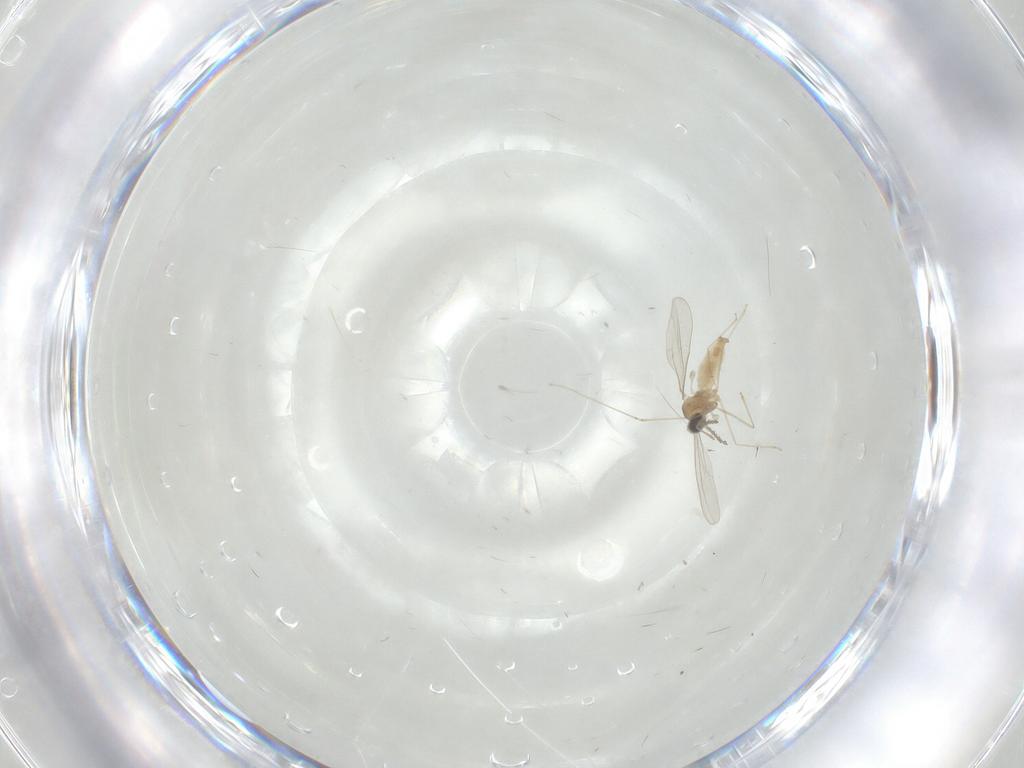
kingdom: Animalia
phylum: Arthropoda
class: Insecta
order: Diptera
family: Cecidomyiidae
